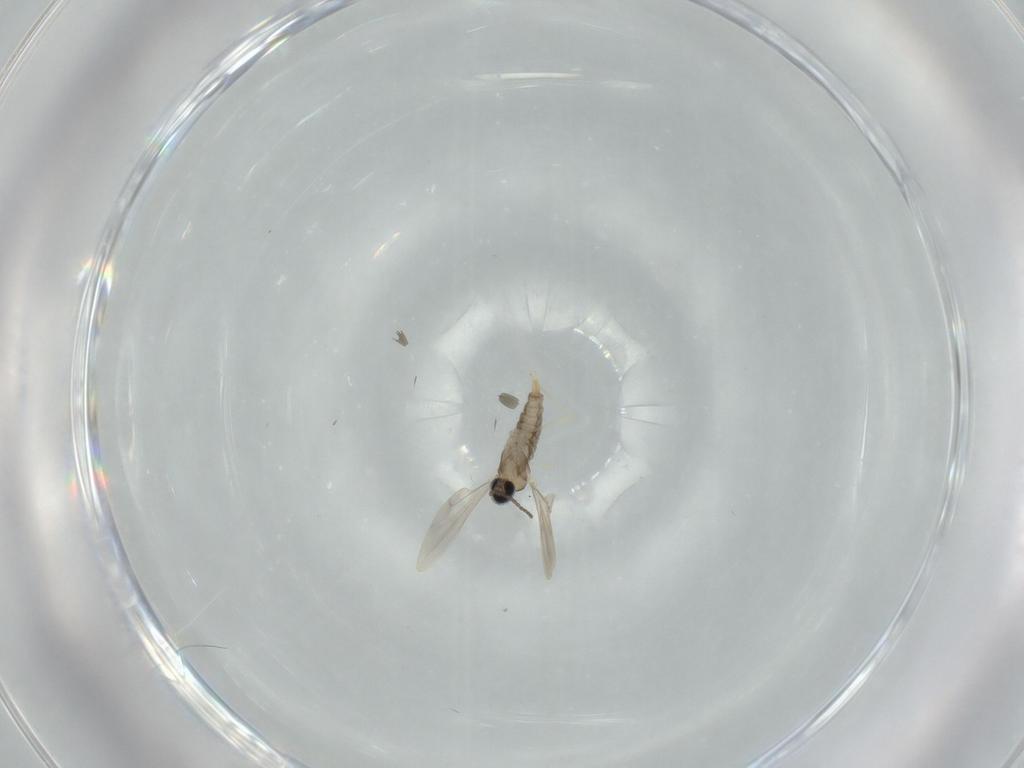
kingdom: Animalia
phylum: Arthropoda
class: Insecta
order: Diptera
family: Cecidomyiidae
